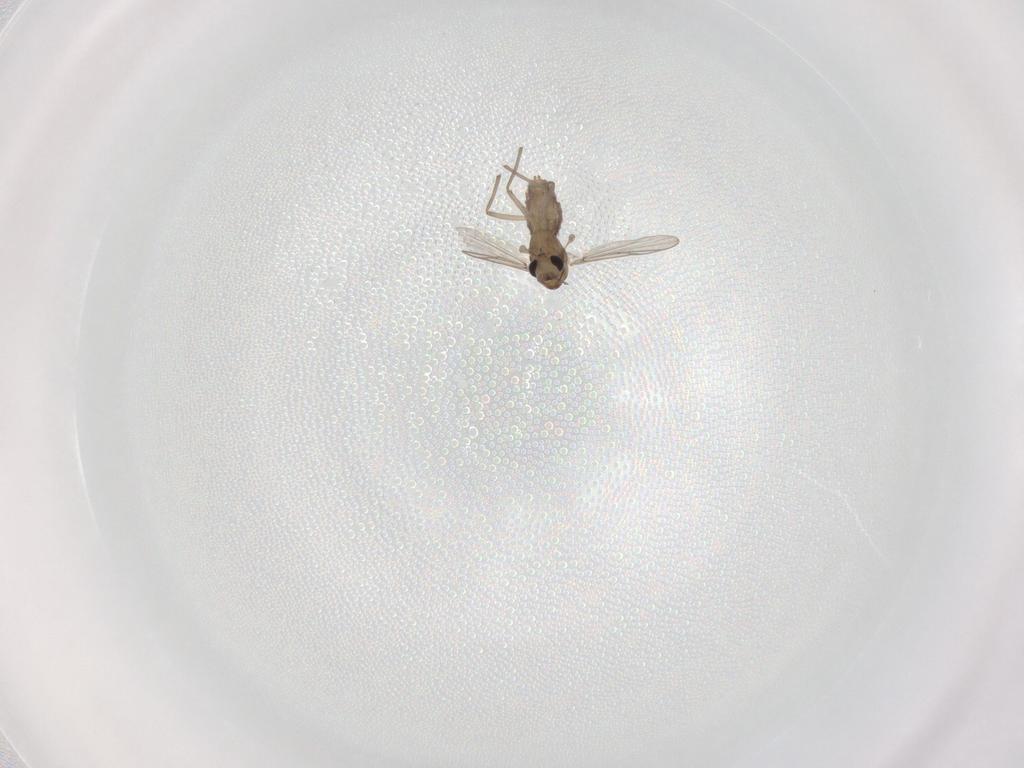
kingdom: Animalia
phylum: Arthropoda
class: Insecta
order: Diptera
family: Chironomidae
